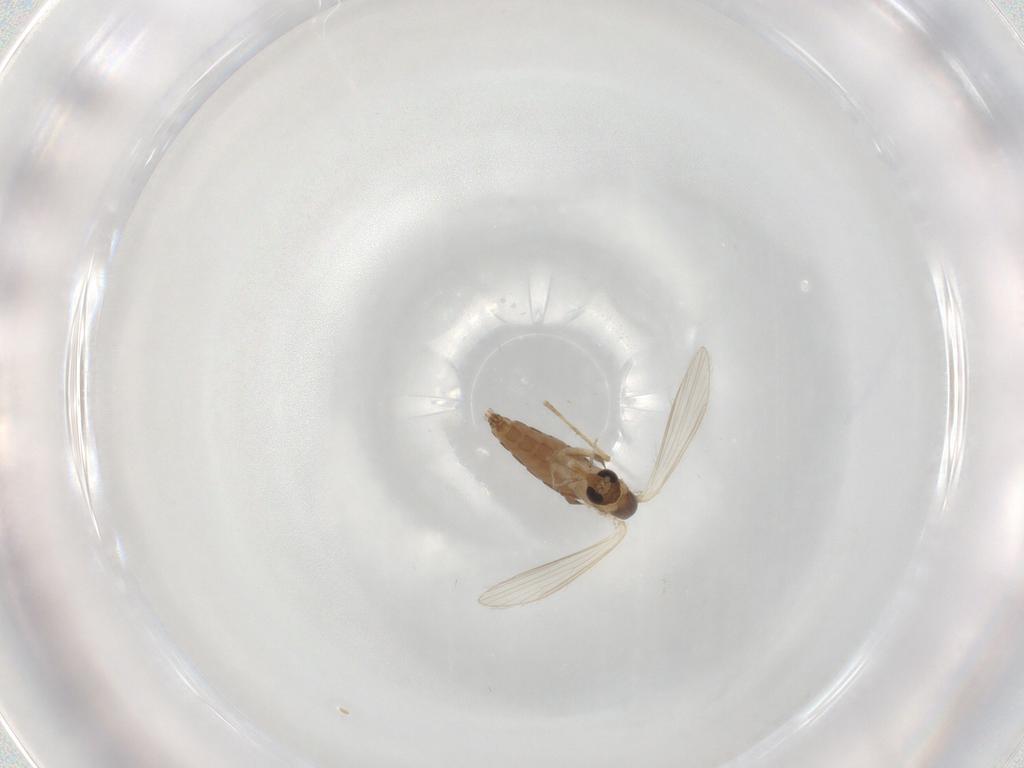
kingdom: Animalia
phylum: Arthropoda
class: Insecta
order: Diptera
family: Psychodidae
